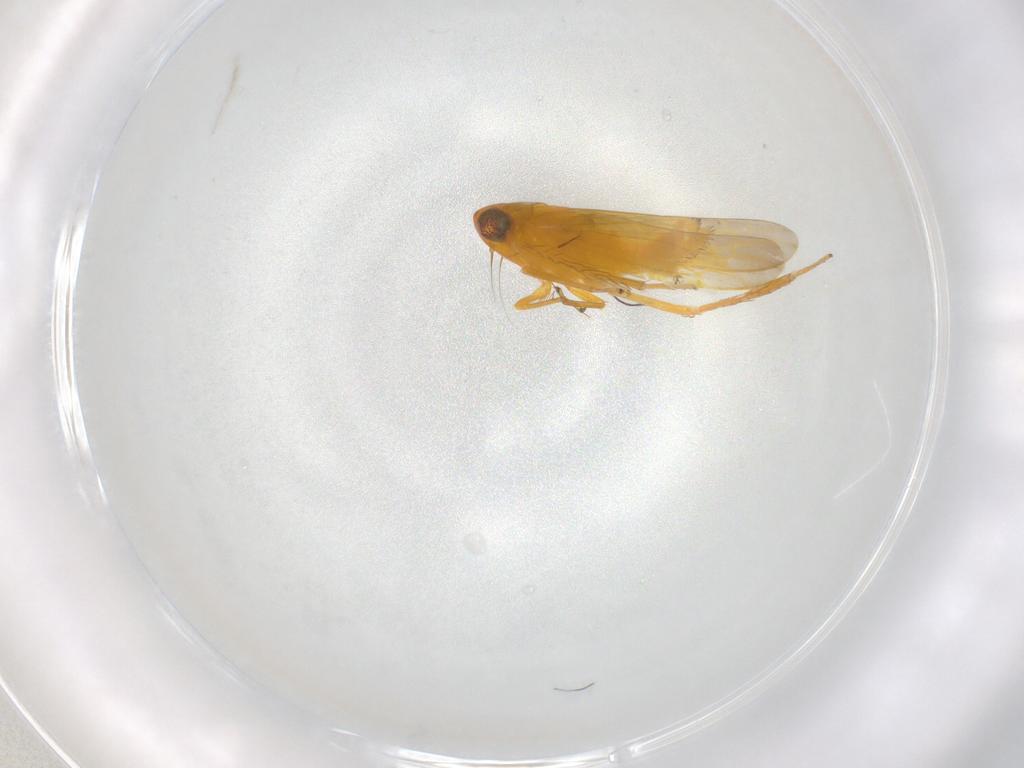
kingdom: Animalia
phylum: Arthropoda
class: Insecta
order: Hemiptera
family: Cicadellidae
